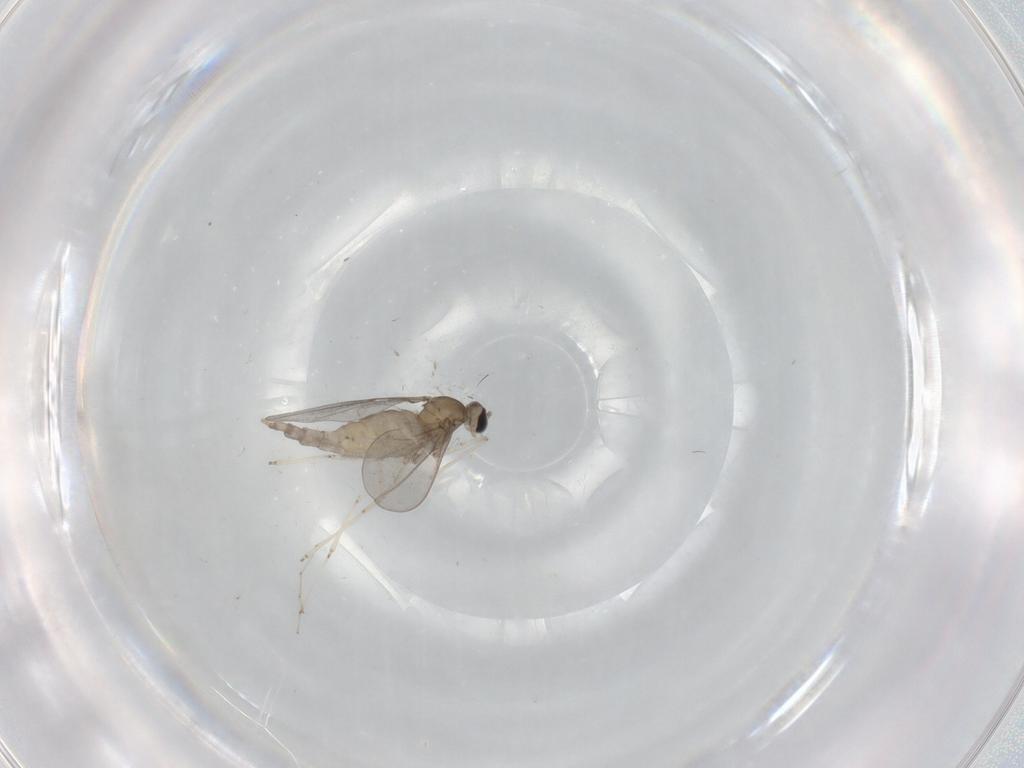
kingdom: Animalia
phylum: Arthropoda
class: Insecta
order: Diptera
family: Cecidomyiidae
